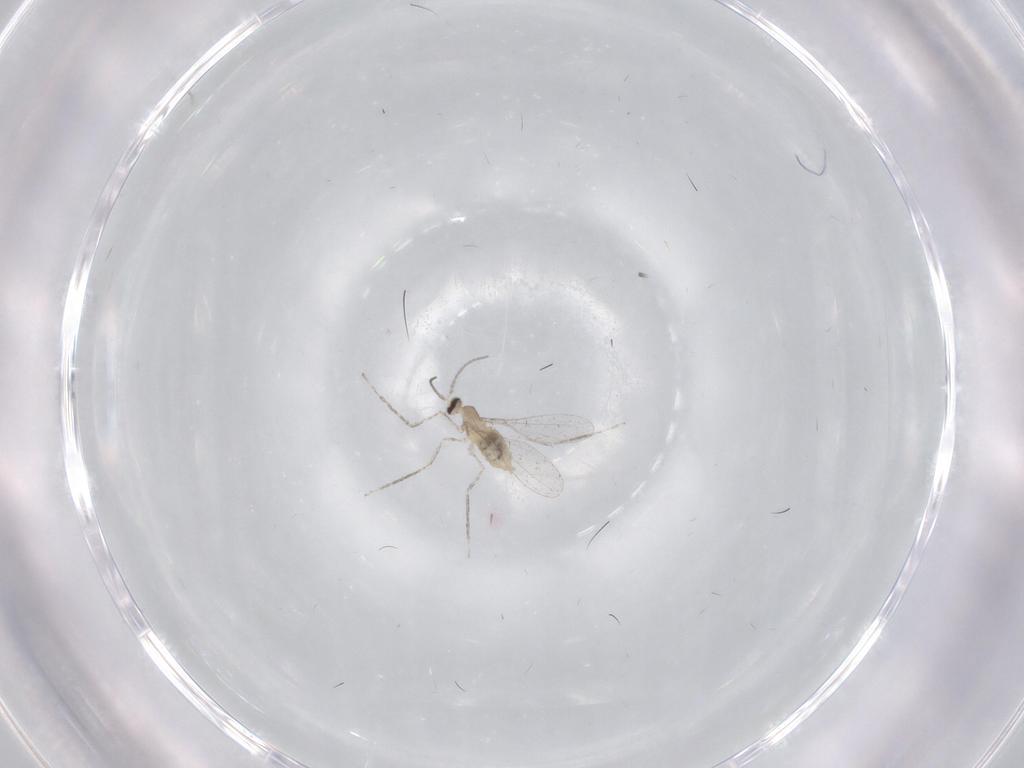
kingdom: Animalia
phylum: Arthropoda
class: Insecta
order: Diptera
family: Cecidomyiidae
